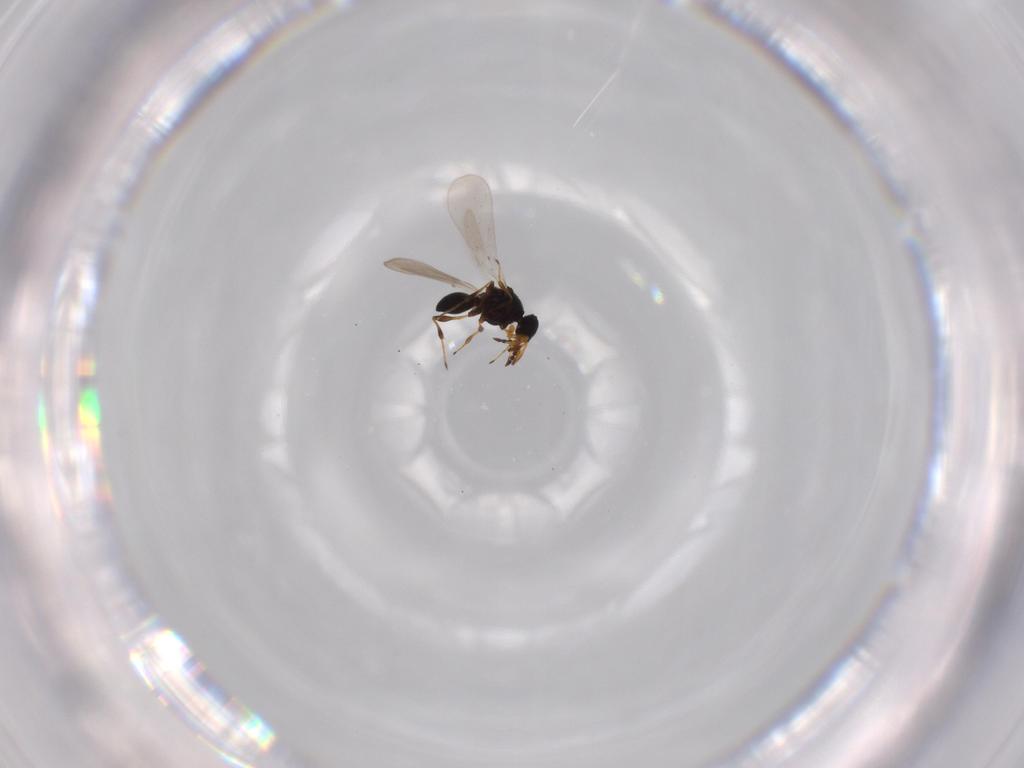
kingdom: Animalia
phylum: Arthropoda
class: Insecta
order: Hymenoptera
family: Platygastridae
